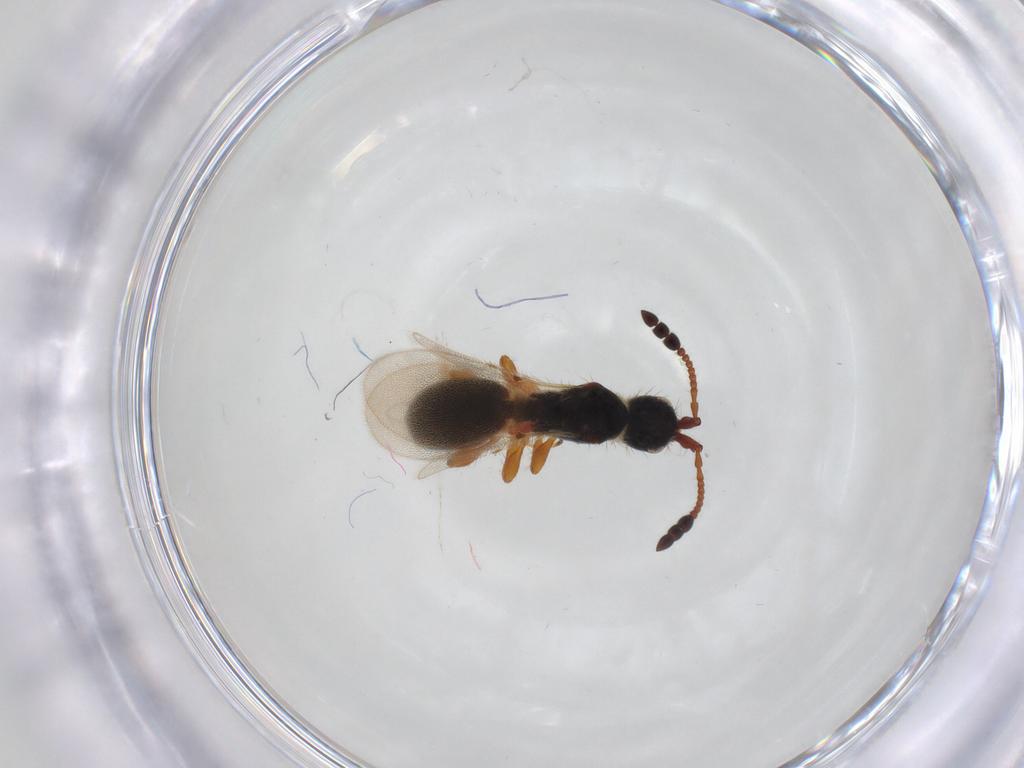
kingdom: Animalia
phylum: Arthropoda
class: Insecta
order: Hymenoptera
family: Diapriidae
